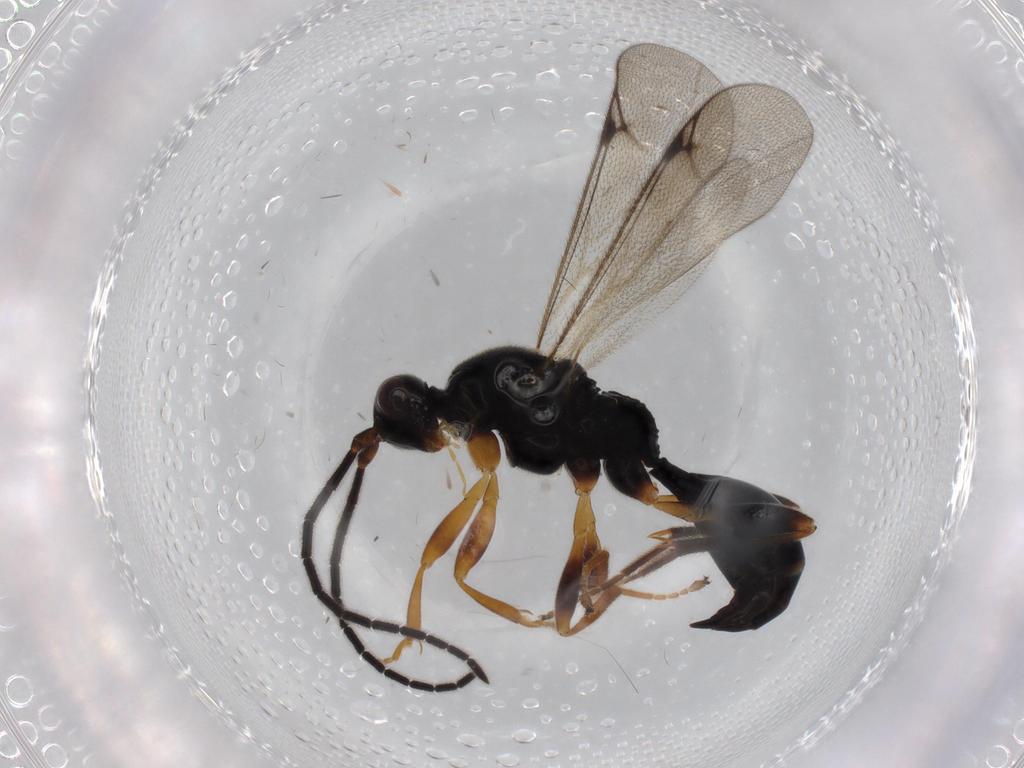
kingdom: Animalia
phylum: Arthropoda
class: Insecta
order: Hymenoptera
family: Proctotrupidae
